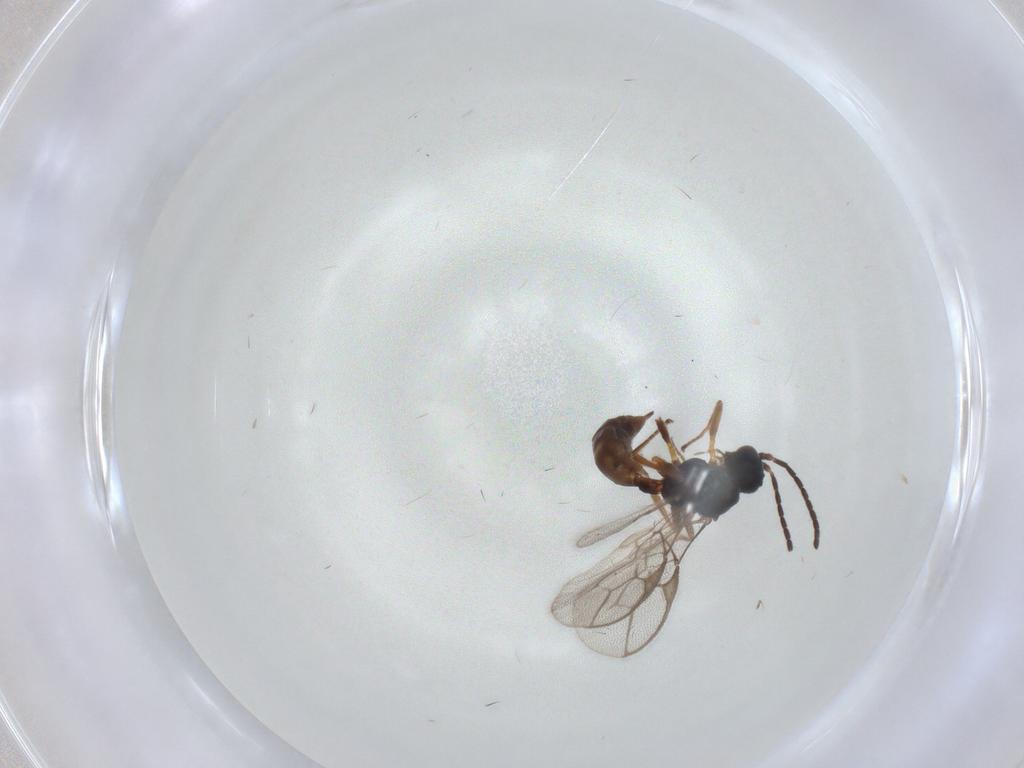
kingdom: Animalia
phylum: Arthropoda
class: Insecta
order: Hymenoptera
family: Braconidae
